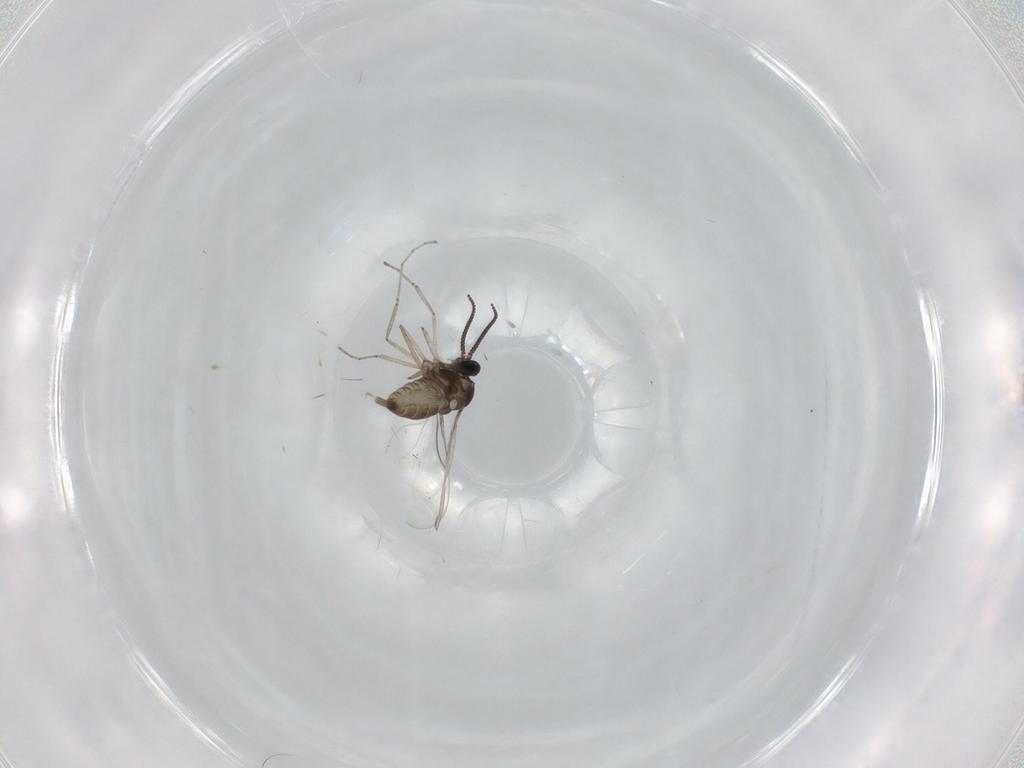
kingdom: Animalia
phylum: Arthropoda
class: Insecta
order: Diptera
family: Cecidomyiidae
